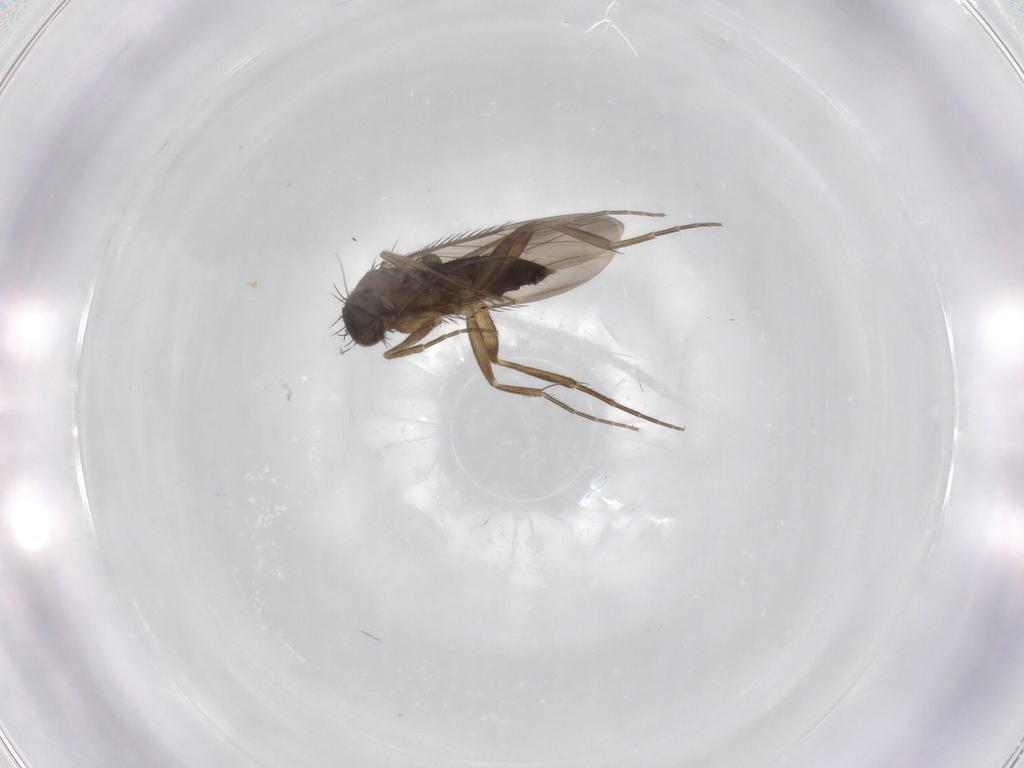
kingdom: Animalia
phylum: Arthropoda
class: Insecta
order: Diptera
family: Phoridae
